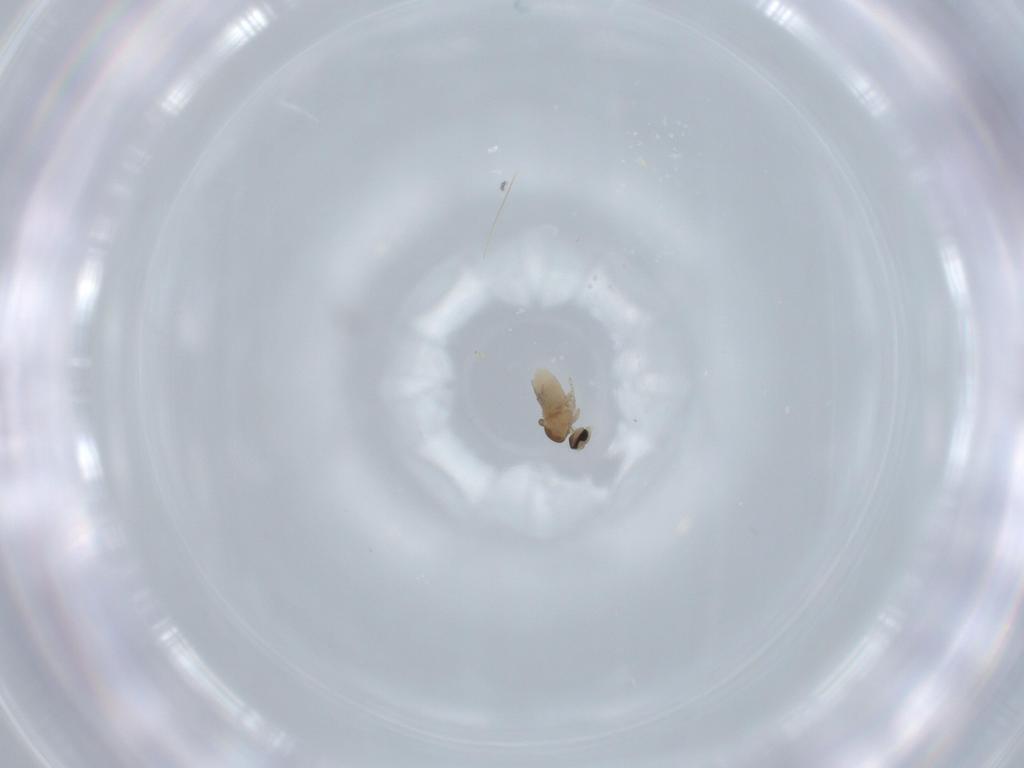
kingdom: Animalia
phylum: Arthropoda
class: Insecta
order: Diptera
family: Cecidomyiidae
